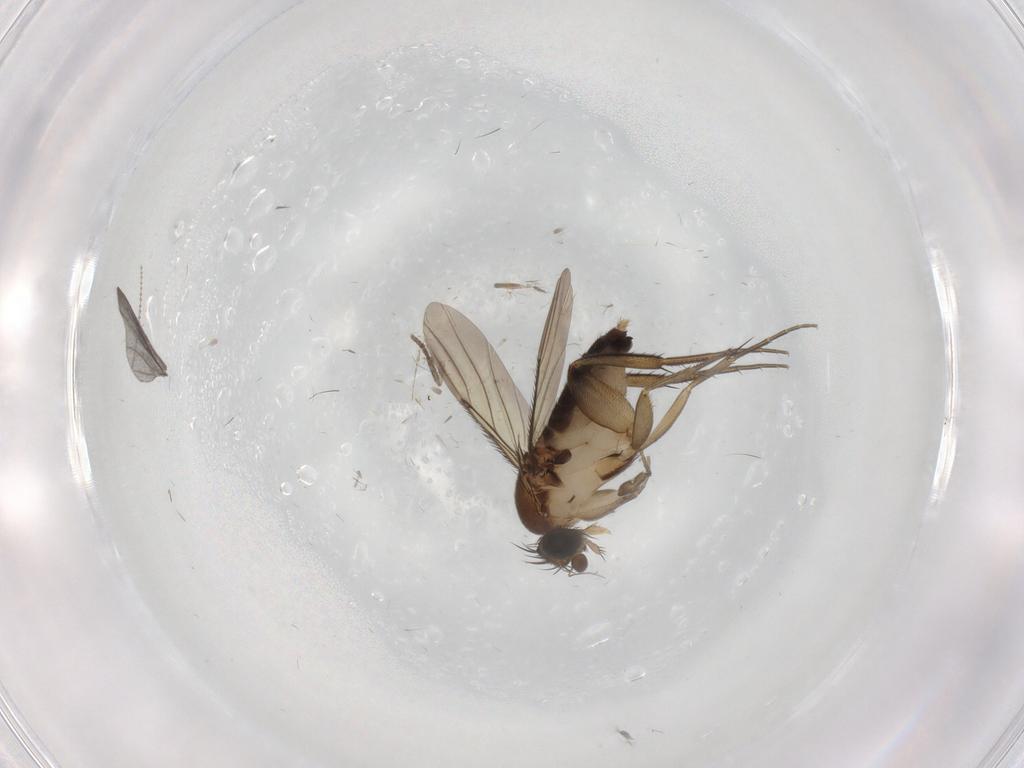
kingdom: Animalia
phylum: Arthropoda
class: Insecta
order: Diptera
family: Phoridae
